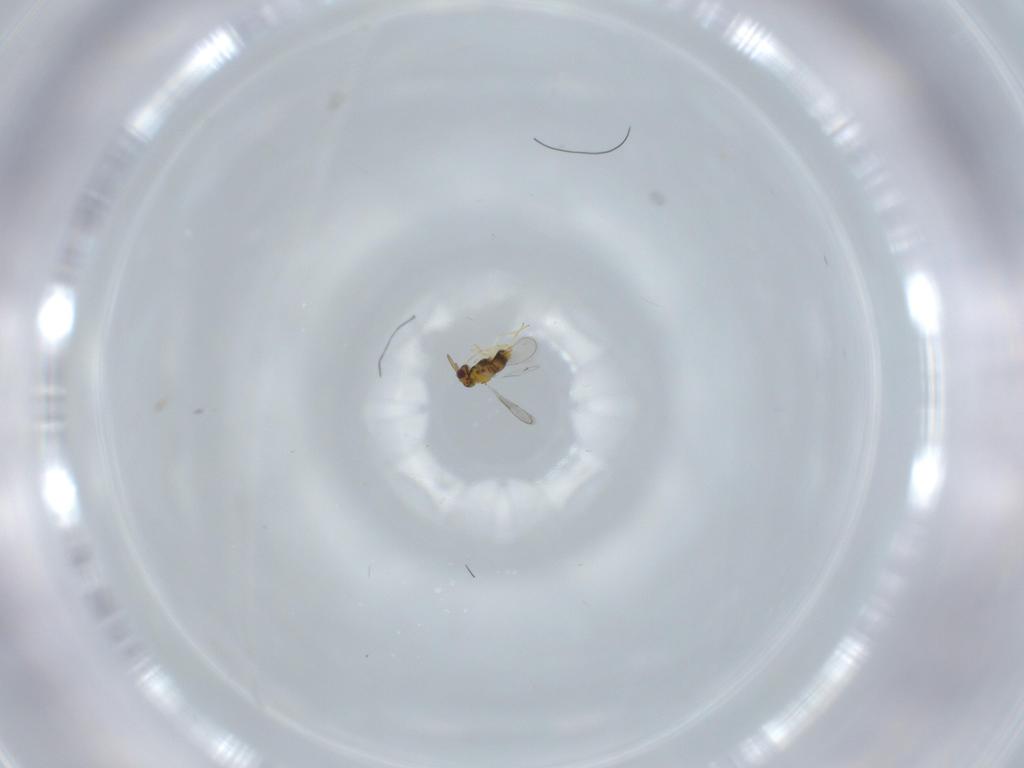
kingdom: Animalia
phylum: Arthropoda
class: Insecta
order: Hymenoptera
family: Aphelinidae
